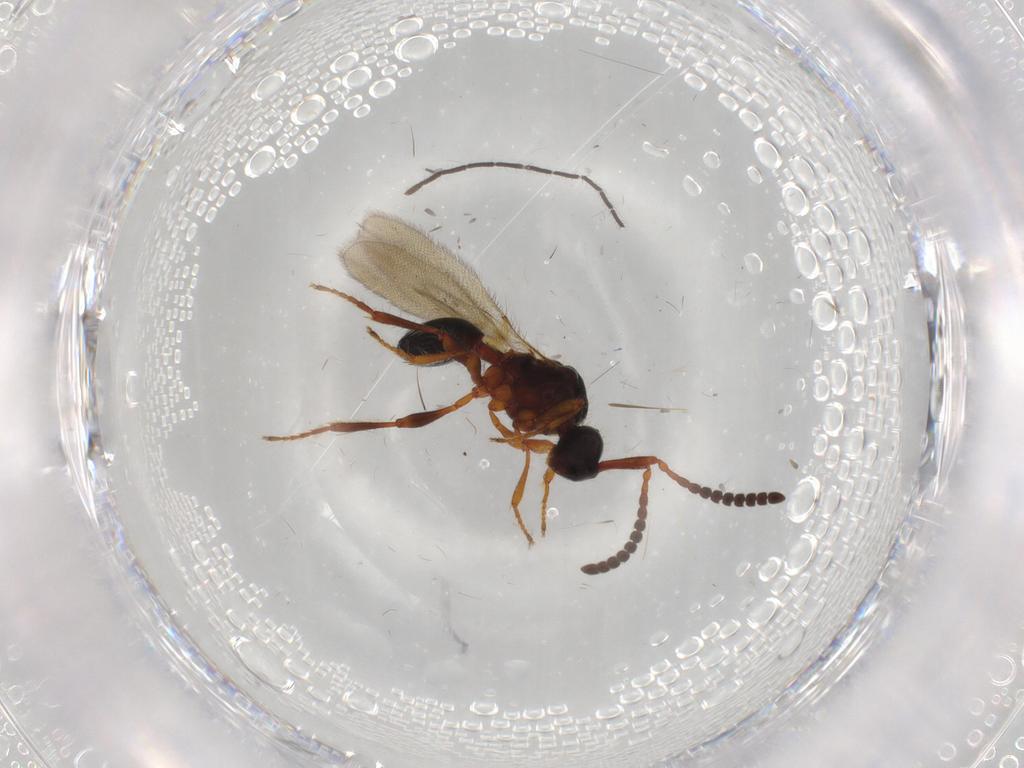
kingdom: Animalia
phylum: Arthropoda
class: Insecta
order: Hymenoptera
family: Diapriidae
